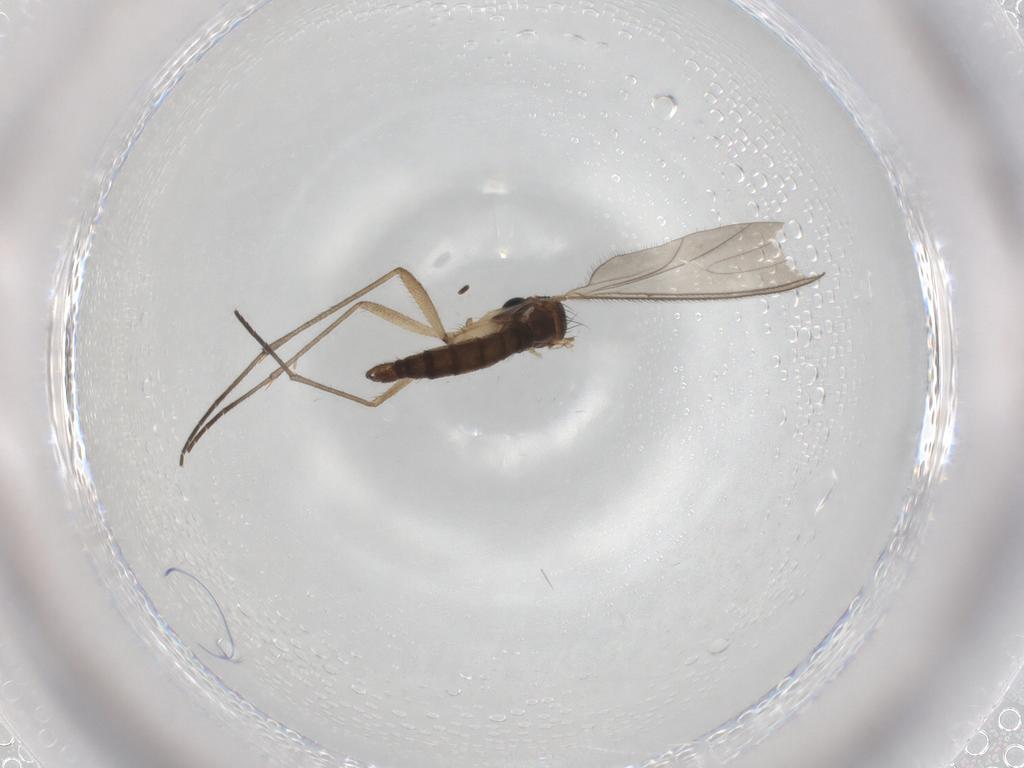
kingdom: Animalia
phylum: Arthropoda
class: Insecta
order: Diptera
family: Sciaridae
